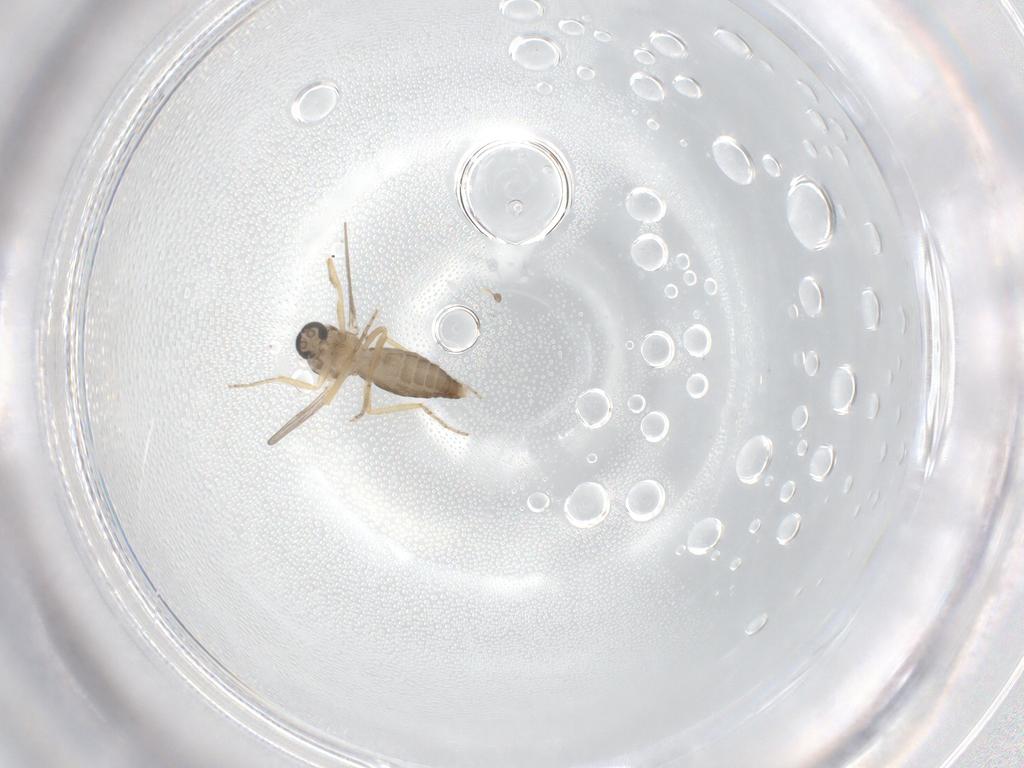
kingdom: Animalia
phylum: Arthropoda
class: Insecta
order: Diptera
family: Ceratopogonidae
